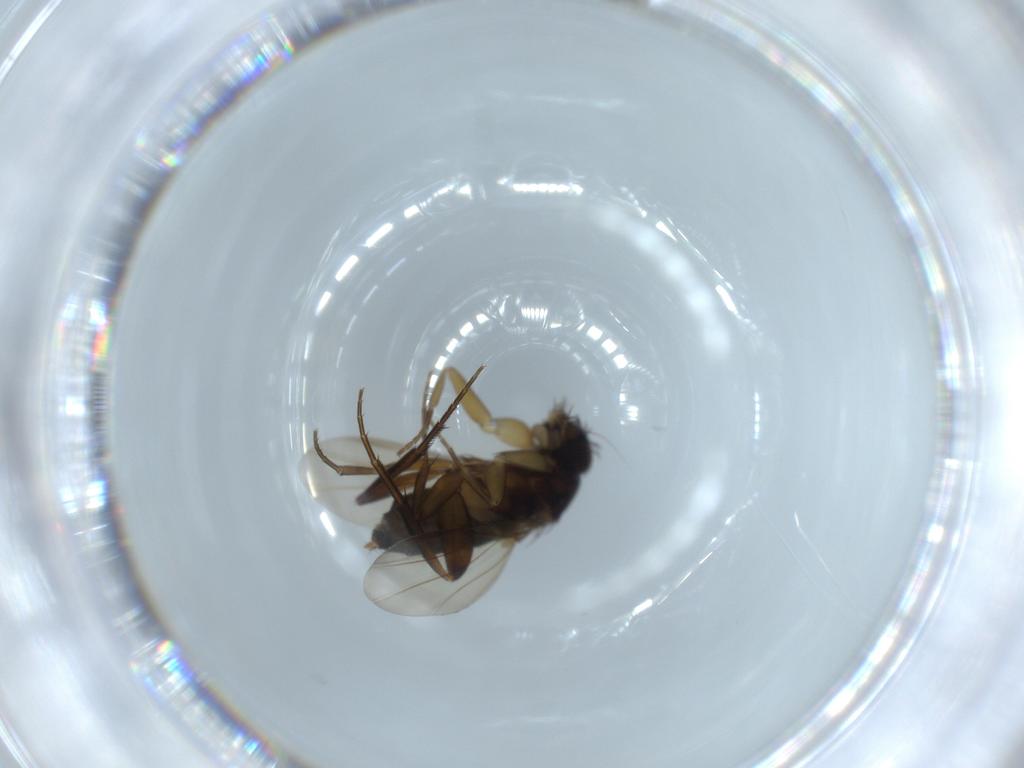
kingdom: Animalia
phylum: Arthropoda
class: Insecta
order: Diptera
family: Phoridae
